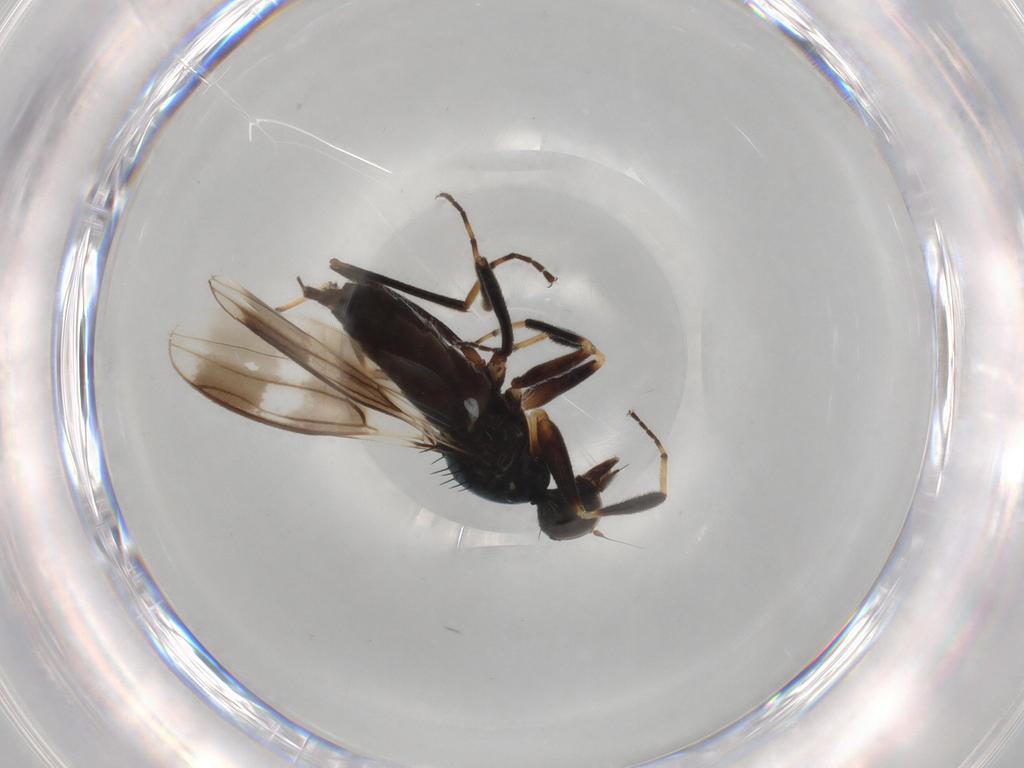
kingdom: Animalia
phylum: Arthropoda
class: Insecta
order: Diptera
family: Hybotidae
